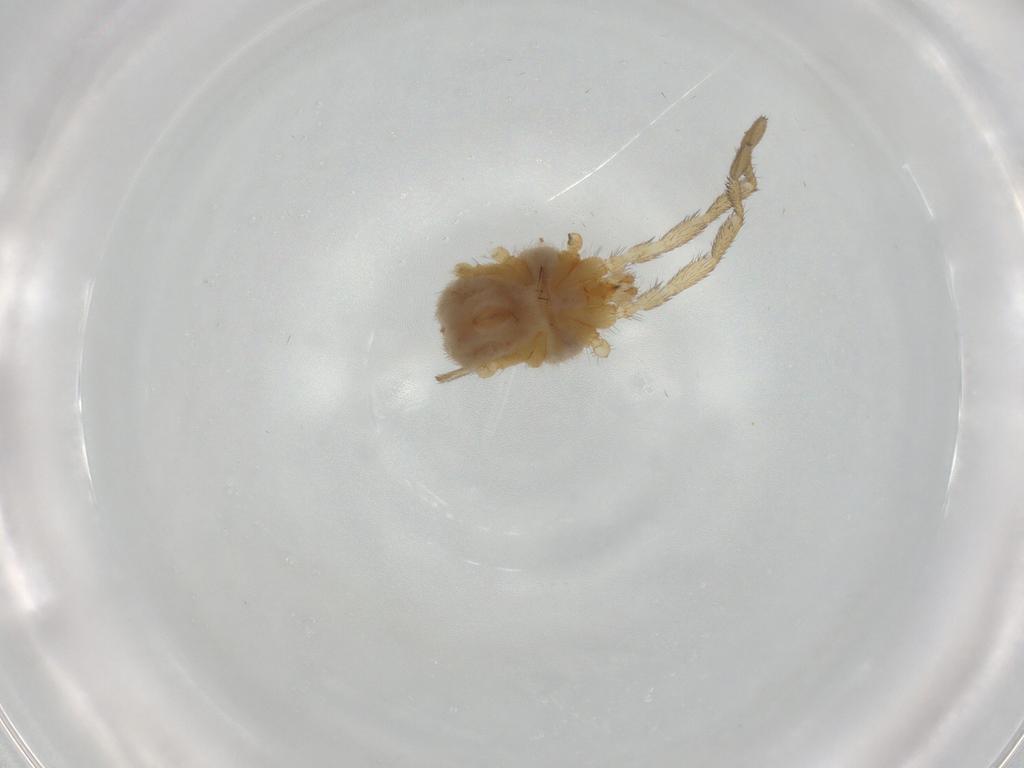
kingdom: Animalia
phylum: Arthropoda
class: Arachnida
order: Trombidiformes
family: Erythraeidae
